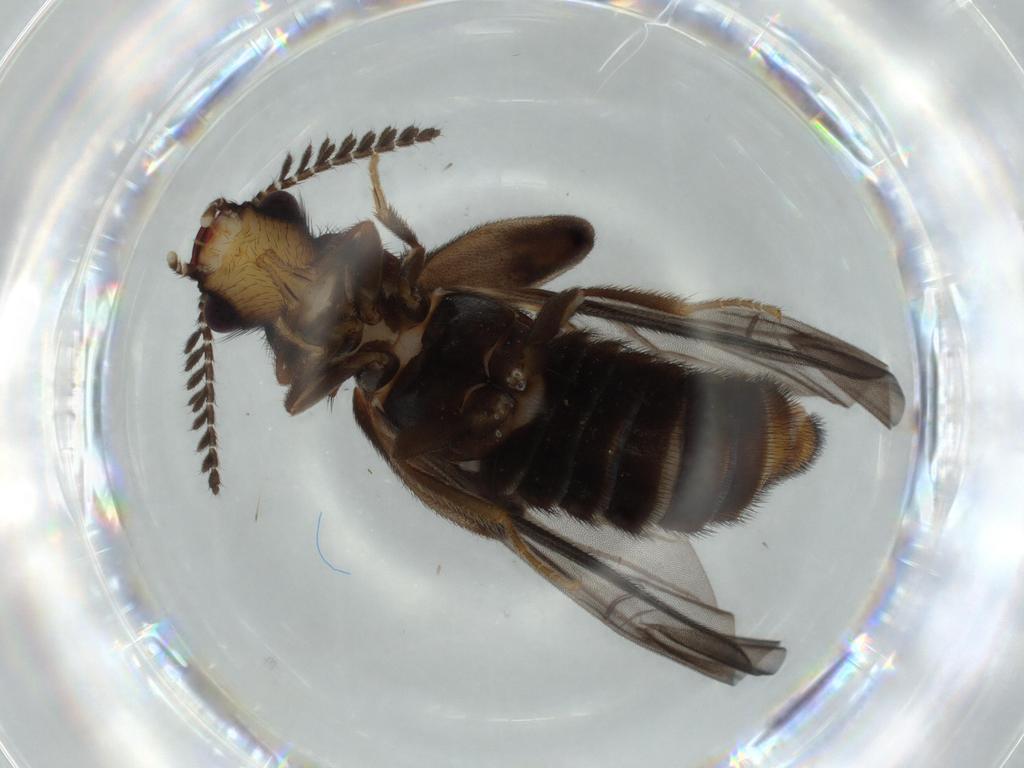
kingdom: Animalia
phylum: Arthropoda
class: Insecta
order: Coleoptera
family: Phengodidae
